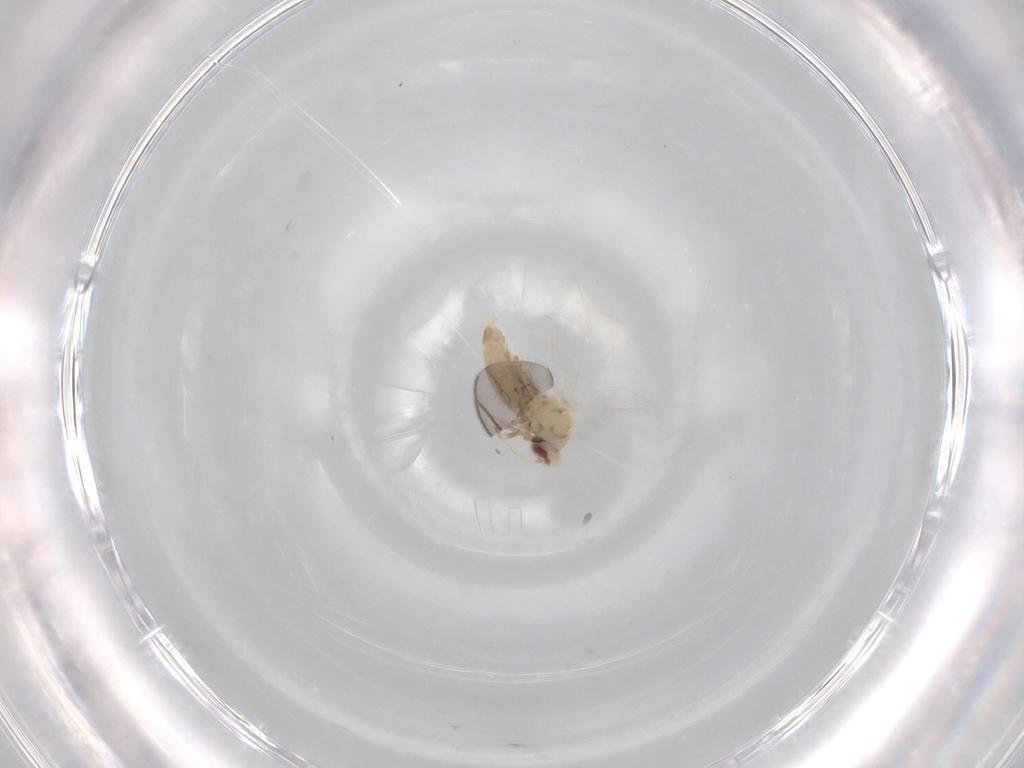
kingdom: Animalia
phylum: Arthropoda
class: Insecta
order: Hemiptera
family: Aleyrodidae
